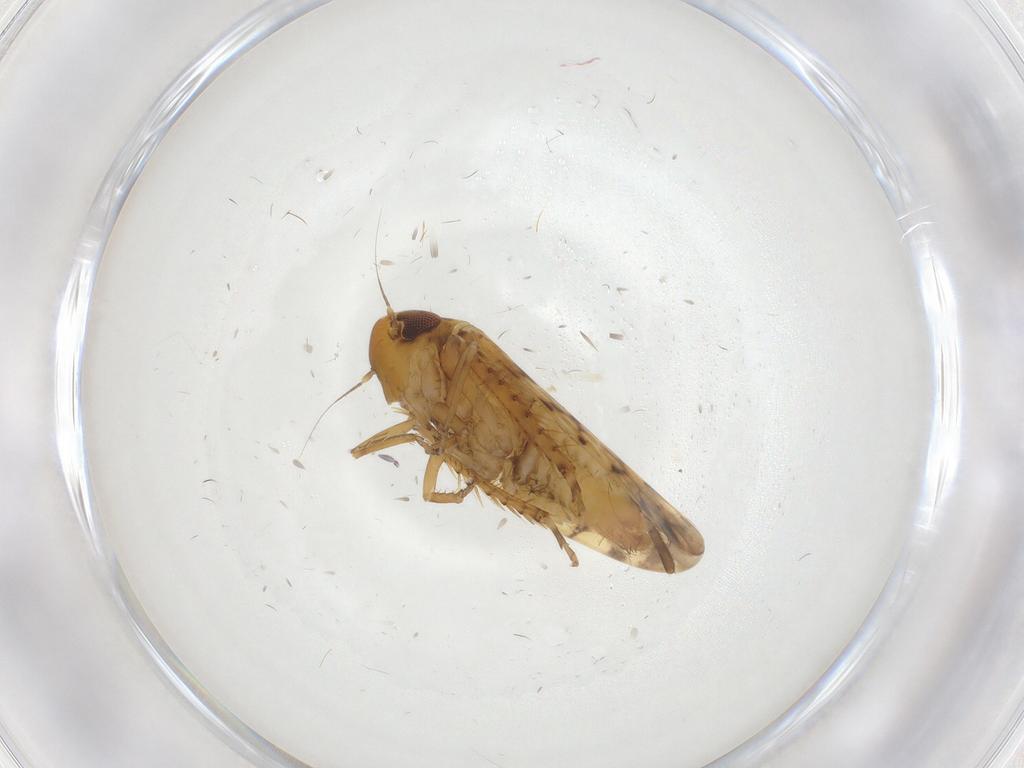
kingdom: Animalia
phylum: Arthropoda
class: Insecta
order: Hemiptera
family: Cicadellidae
